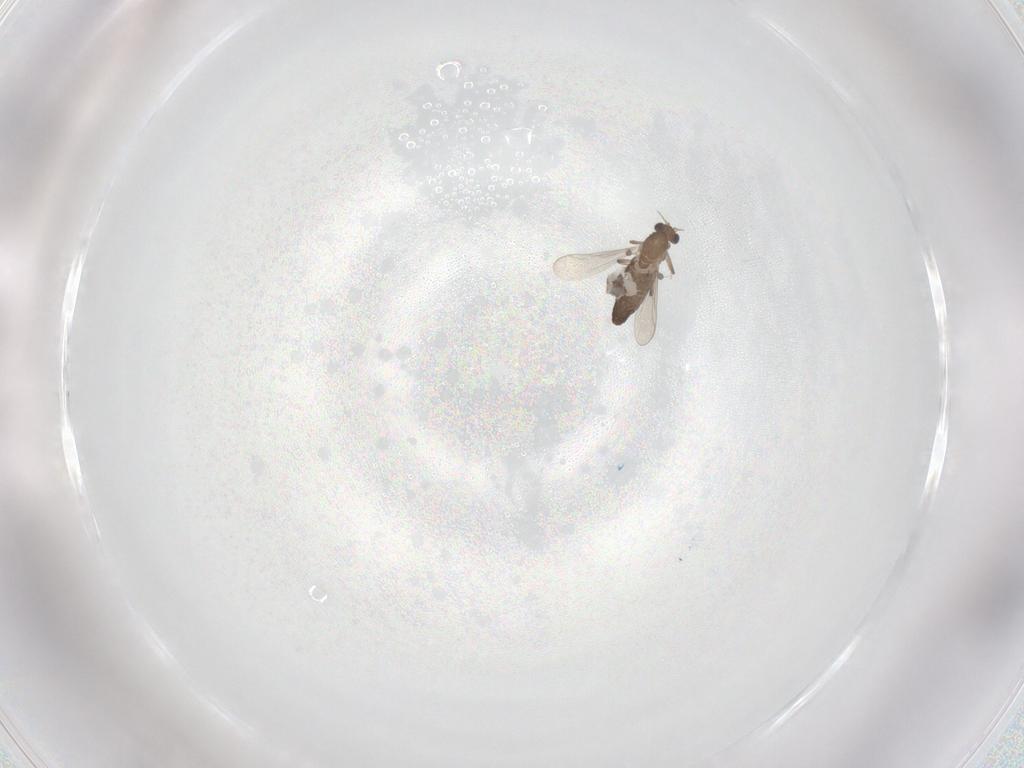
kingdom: Animalia
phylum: Arthropoda
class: Insecta
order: Diptera
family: Chironomidae
